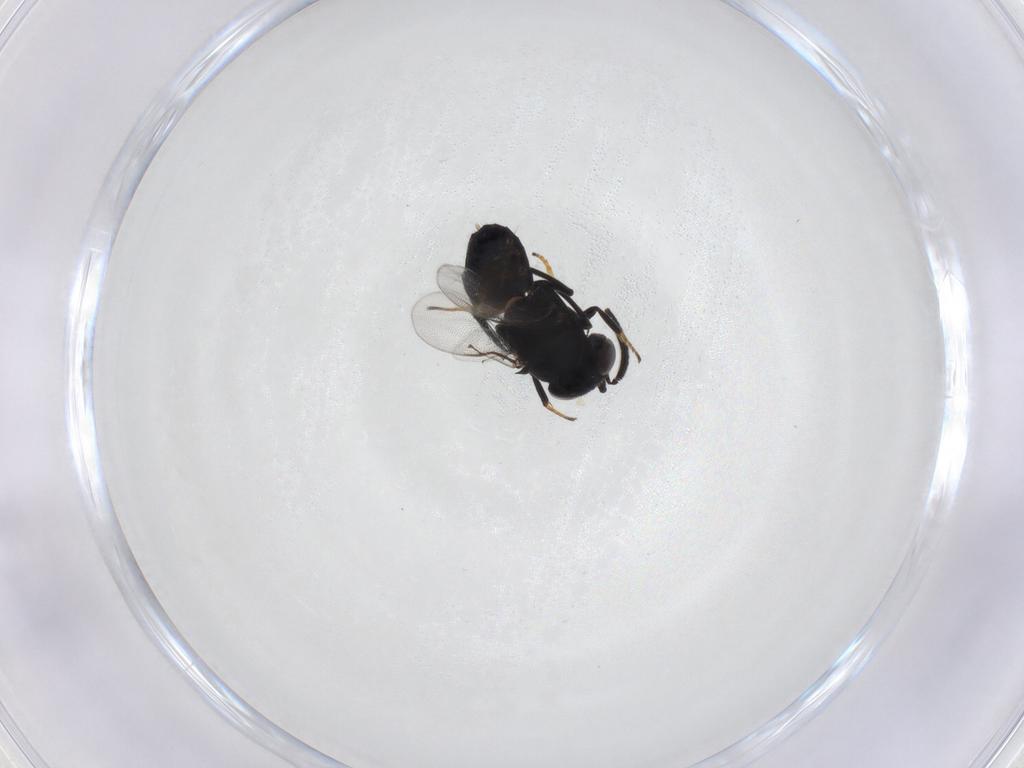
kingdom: Animalia
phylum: Arthropoda
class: Insecta
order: Hymenoptera
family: Encyrtidae
